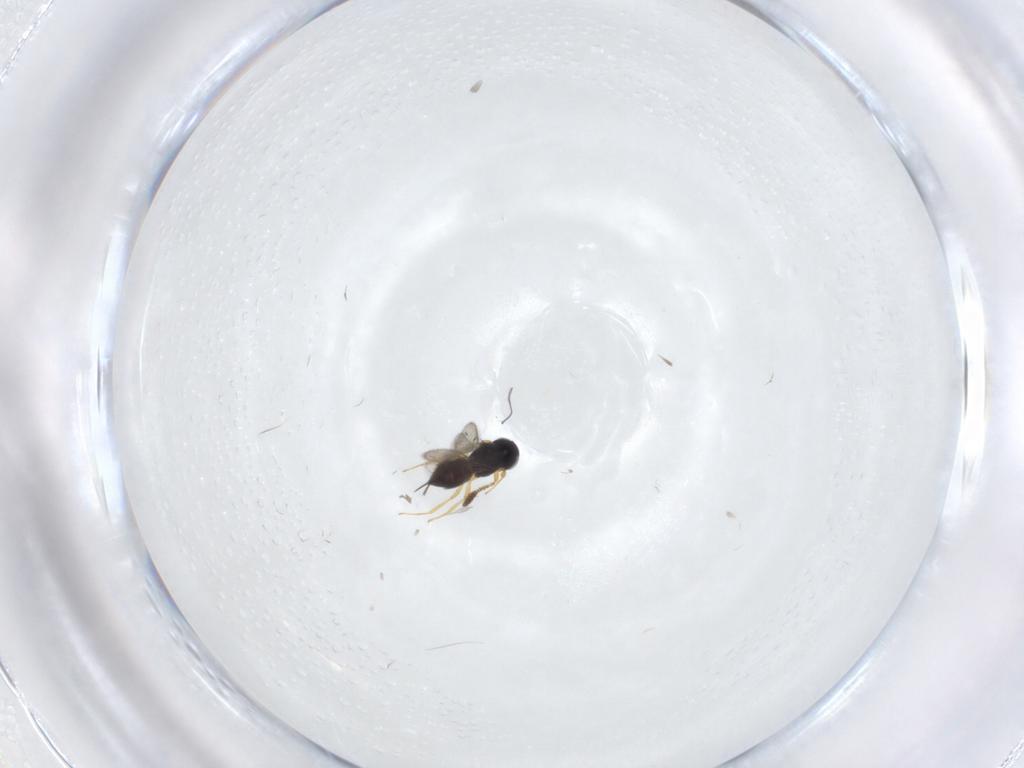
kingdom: Animalia
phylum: Arthropoda
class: Insecta
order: Hymenoptera
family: Scelionidae
